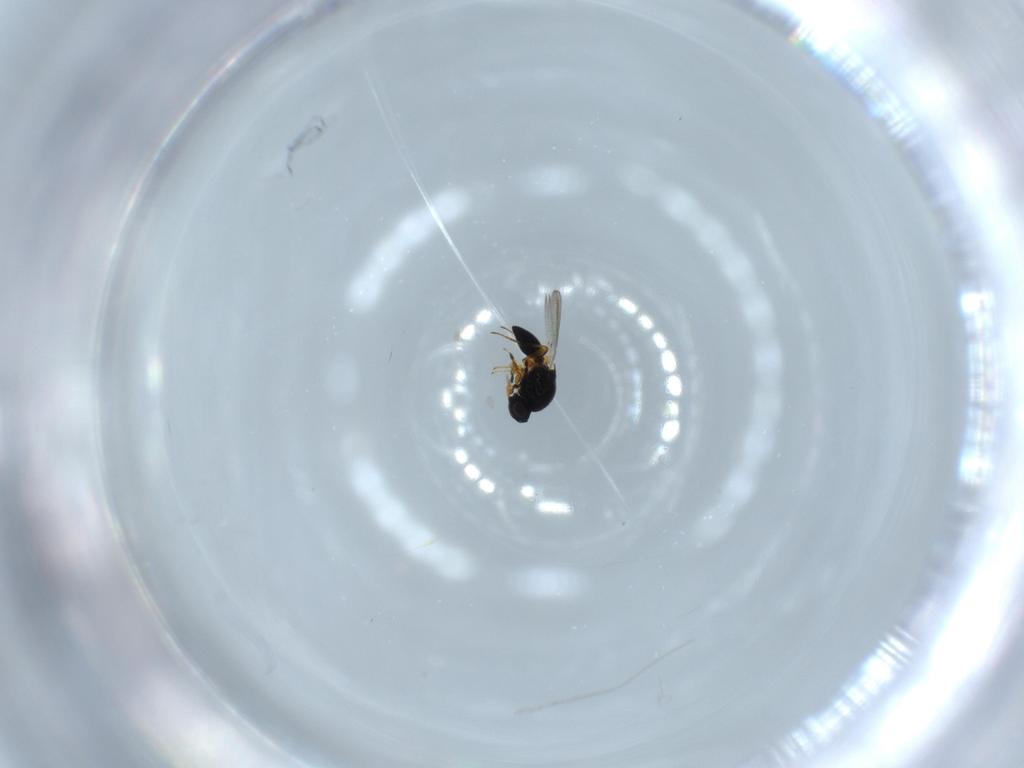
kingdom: Animalia
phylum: Arthropoda
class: Insecta
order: Hymenoptera
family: Platygastridae
